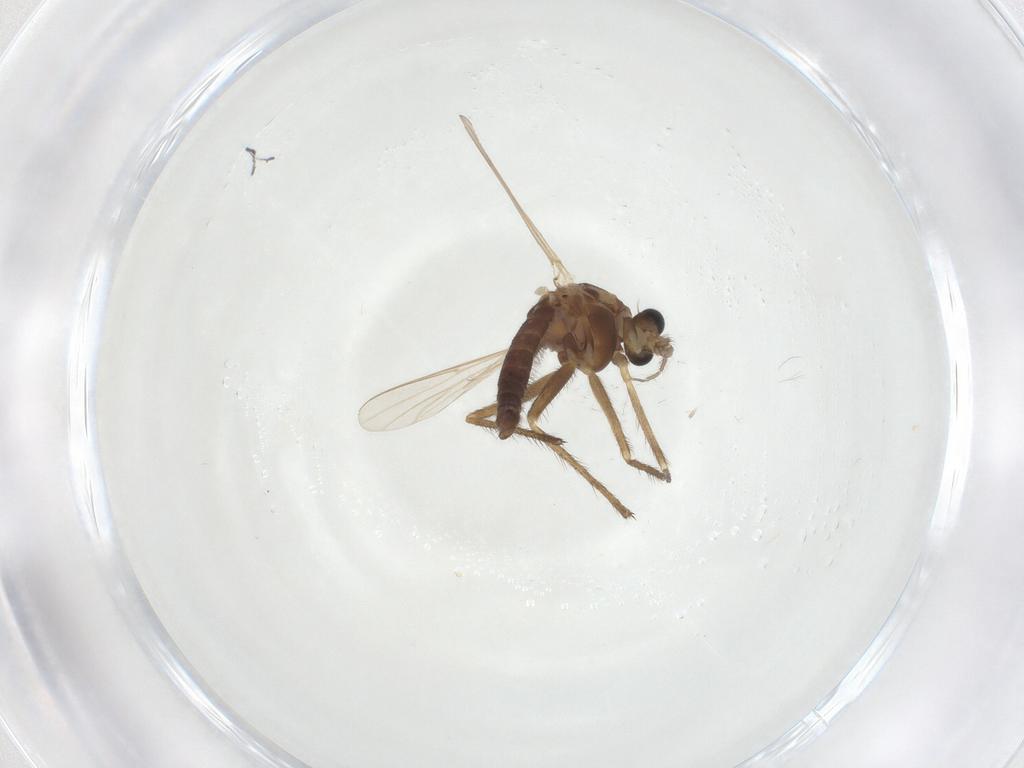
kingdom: Animalia
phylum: Arthropoda
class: Insecta
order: Diptera
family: Chironomidae
